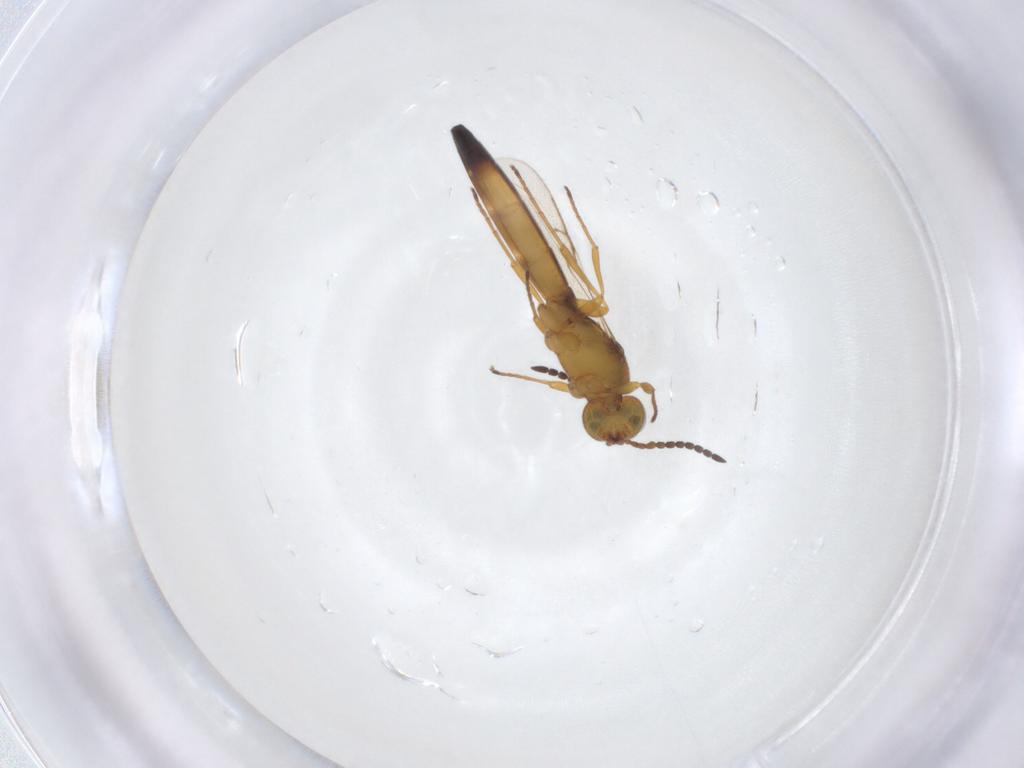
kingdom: Animalia
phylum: Arthropoda
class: Insecta
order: Hymenoptera
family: Scelionidae
